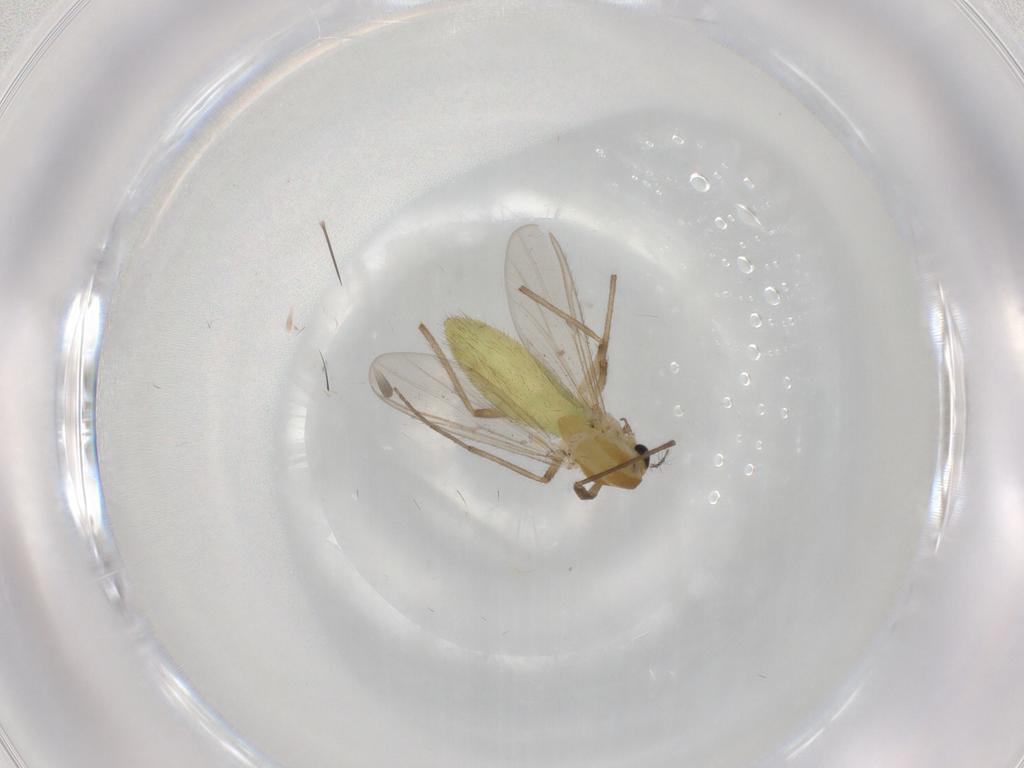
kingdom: Animalia
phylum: Arthropoda
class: Insecta
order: Diptera
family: Chironomidae
